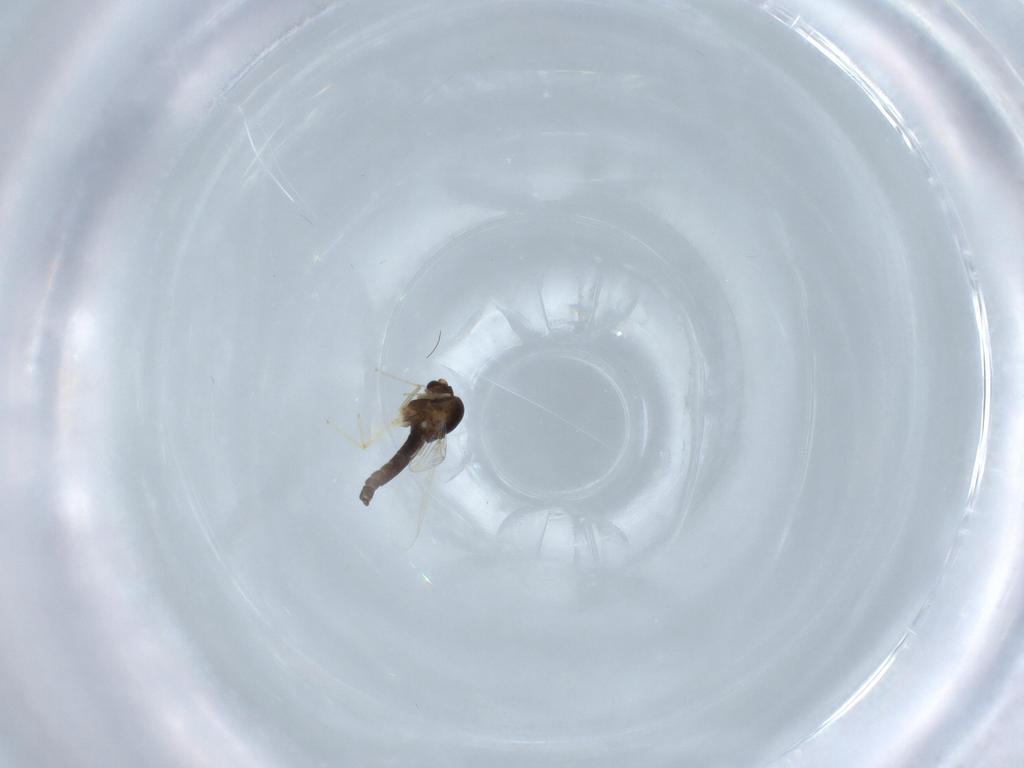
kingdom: Animalia
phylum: Arthropoda
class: Insecta
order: Diptera
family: Chironomidae
